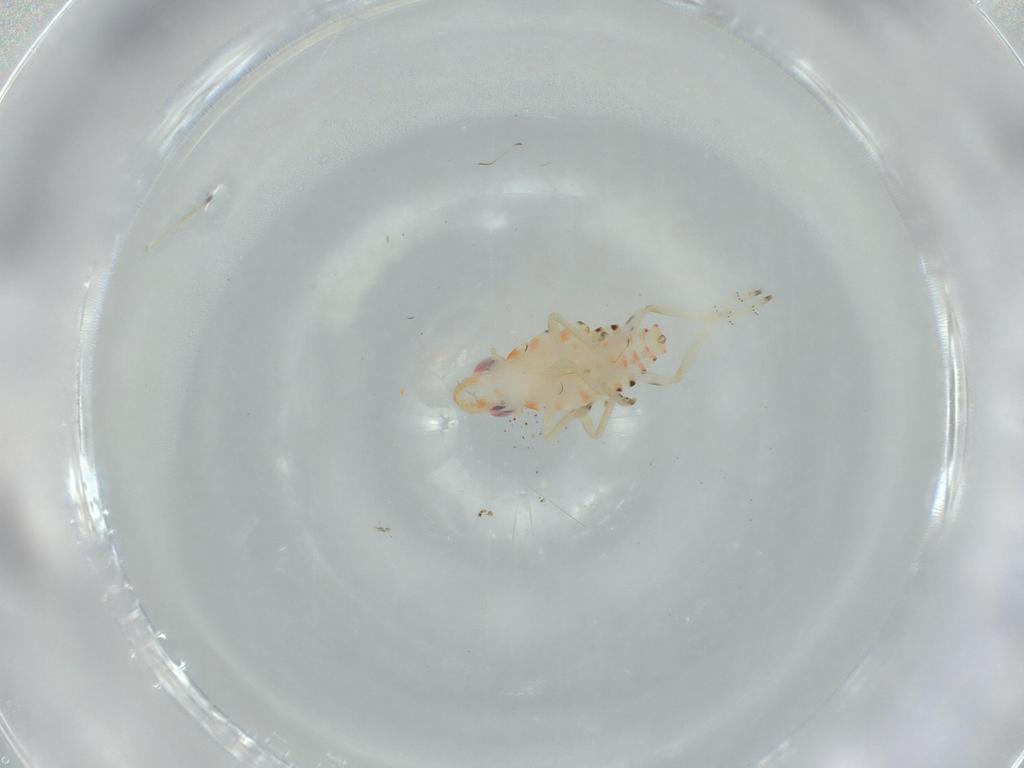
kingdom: Animalia
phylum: Arthropoda
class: Insecta
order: Hemiptera
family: Tropiduchidae
